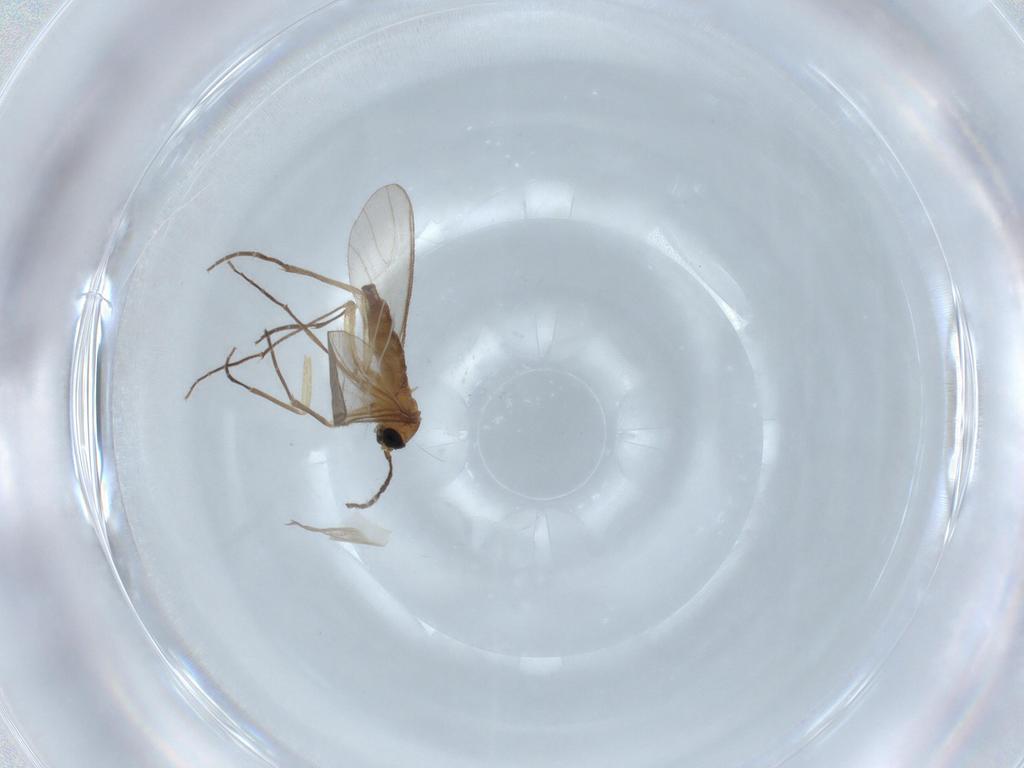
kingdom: Animalia
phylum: Arthropoda
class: Insecta
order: Diptera
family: Sciaridae
